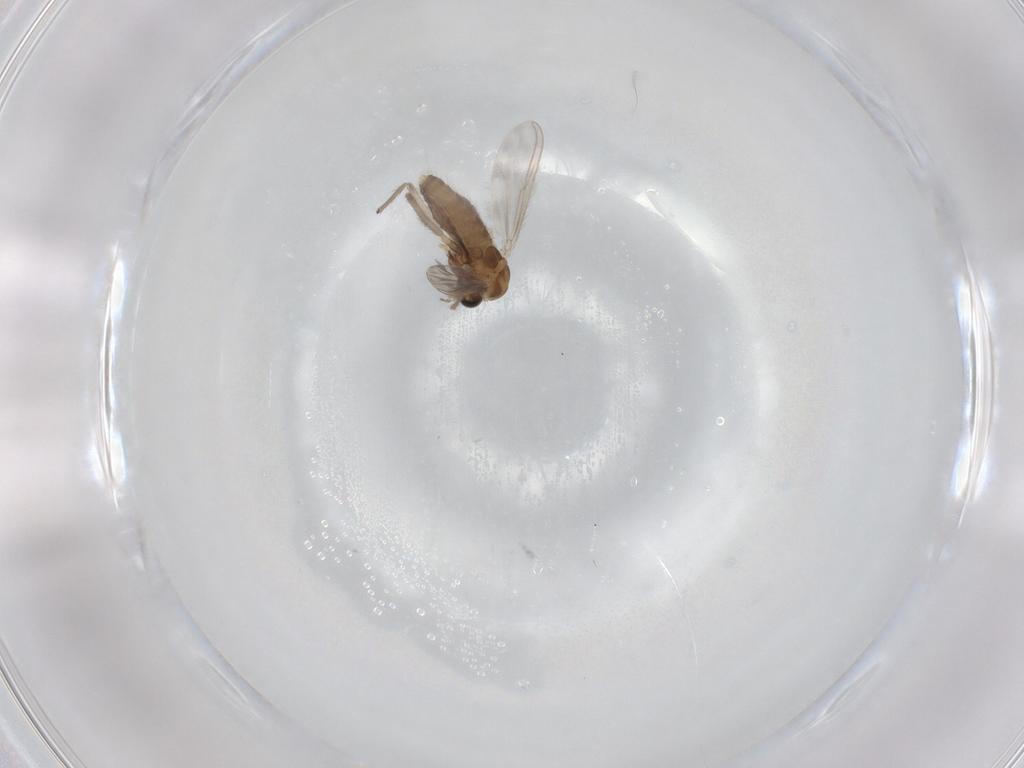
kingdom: Animalia
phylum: Arthropoda
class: Insecta
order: Diptera
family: Chironomidae
